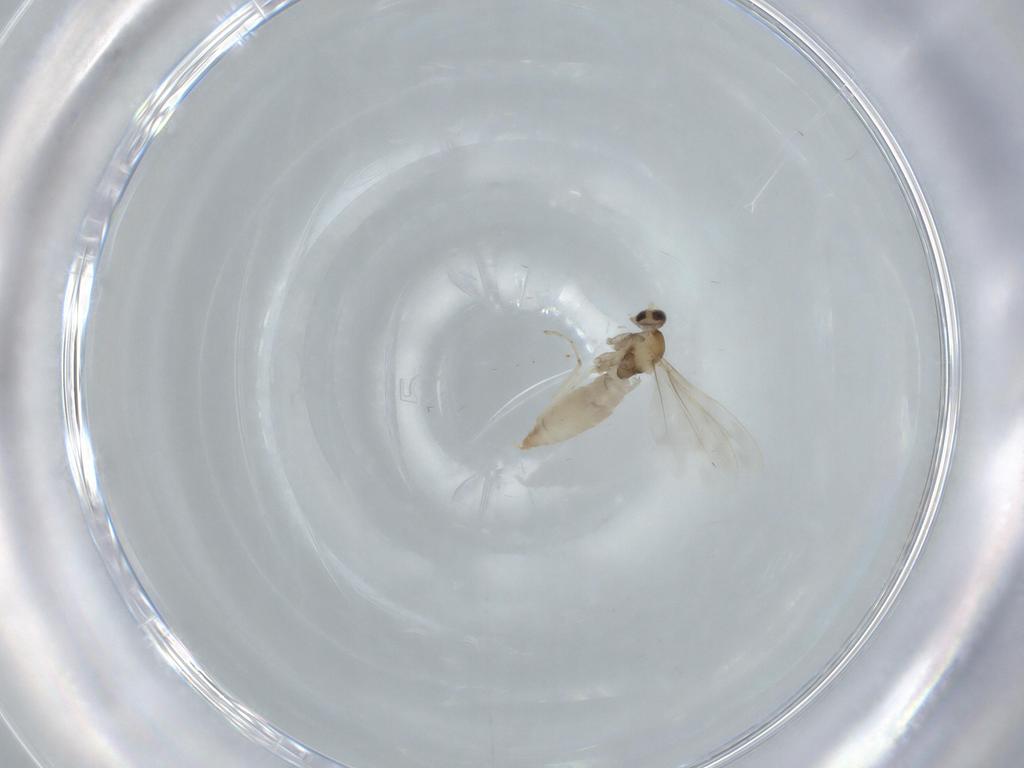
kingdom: Animalia
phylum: Arthropoda
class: Insecta
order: Diptera
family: Cecidomyiidae
